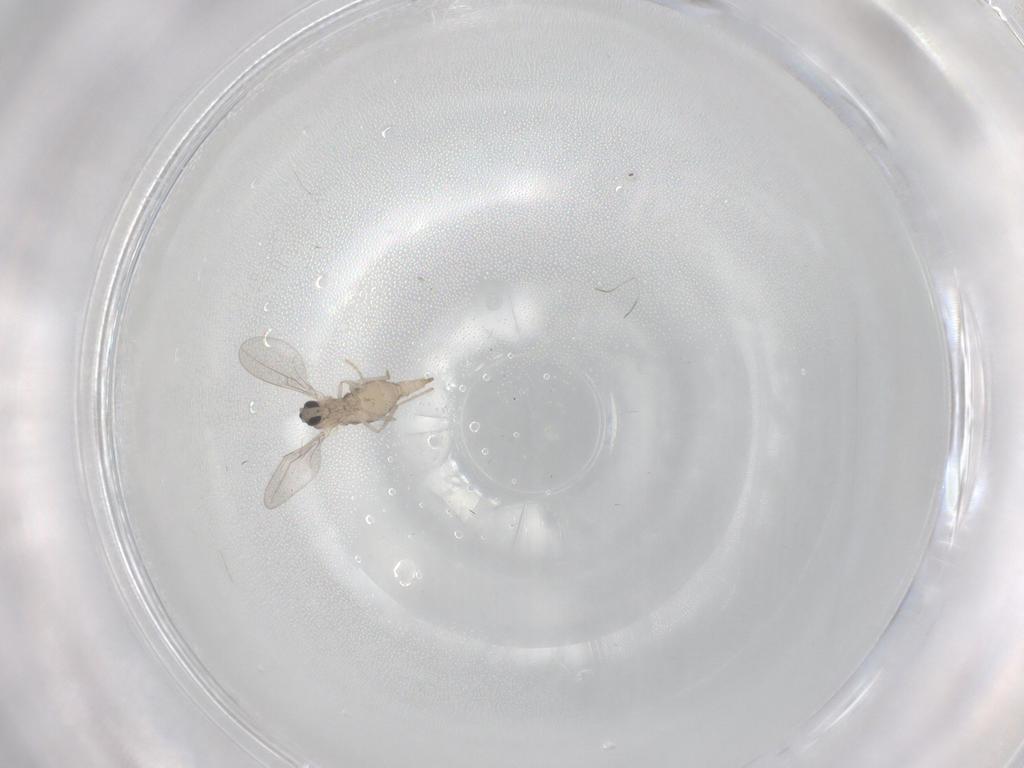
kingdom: Animalia
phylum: Arthropoda
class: Insecta
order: Diptera
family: Cecidomyiidae
